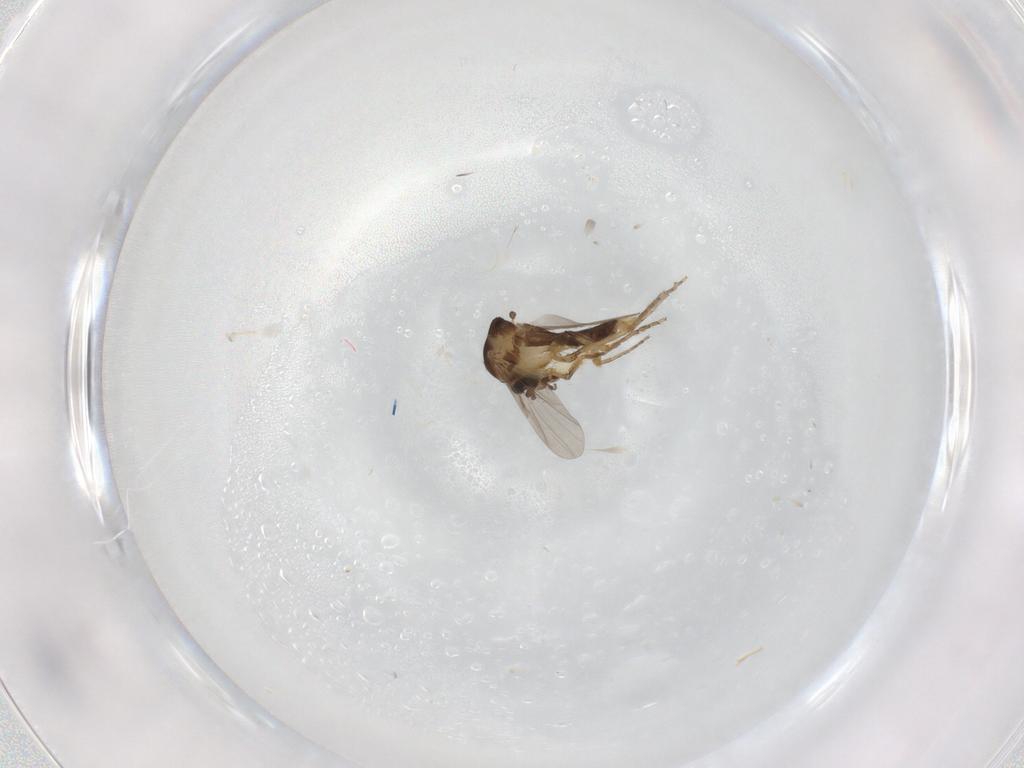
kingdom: Animalia
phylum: Arthropoda
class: Insecta
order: Diptera
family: Ceratopogonidae
